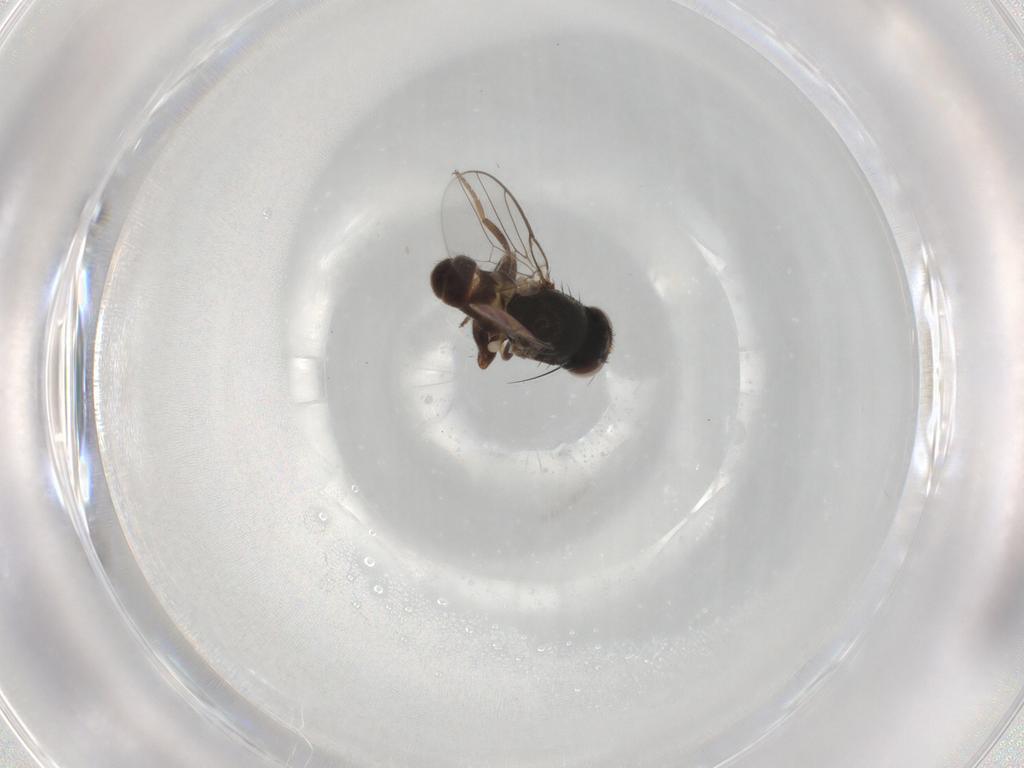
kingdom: Animalia
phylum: Arthropoda
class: Insecta
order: Diptera
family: Chloropidae
